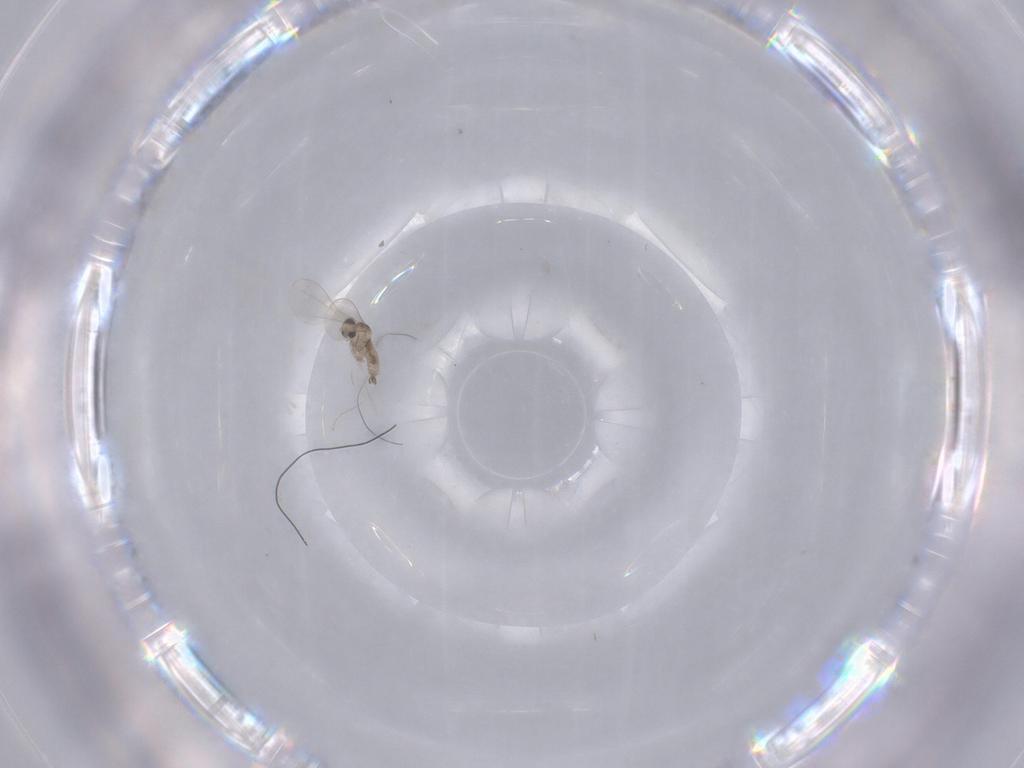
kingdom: Animalia
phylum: Arthropoda
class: Insecta
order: Diptera
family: Cecidomyiidae
